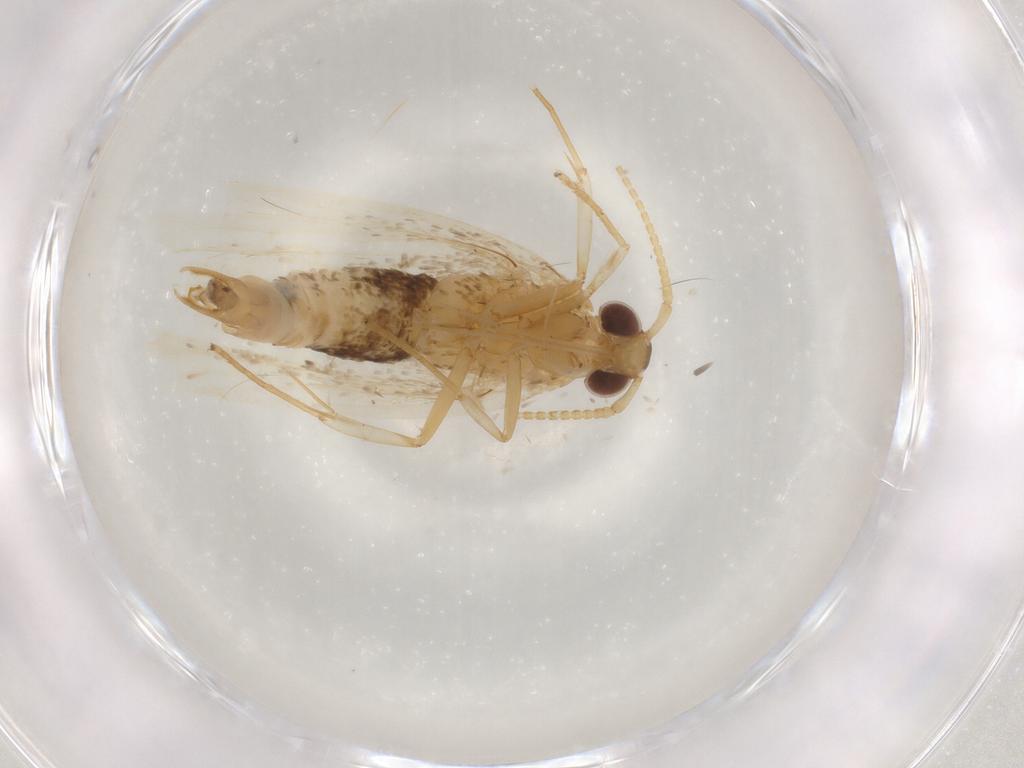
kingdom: Animalia
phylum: Arthropoda
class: Insecta
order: Lepidoptera
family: Lecithoceridae
